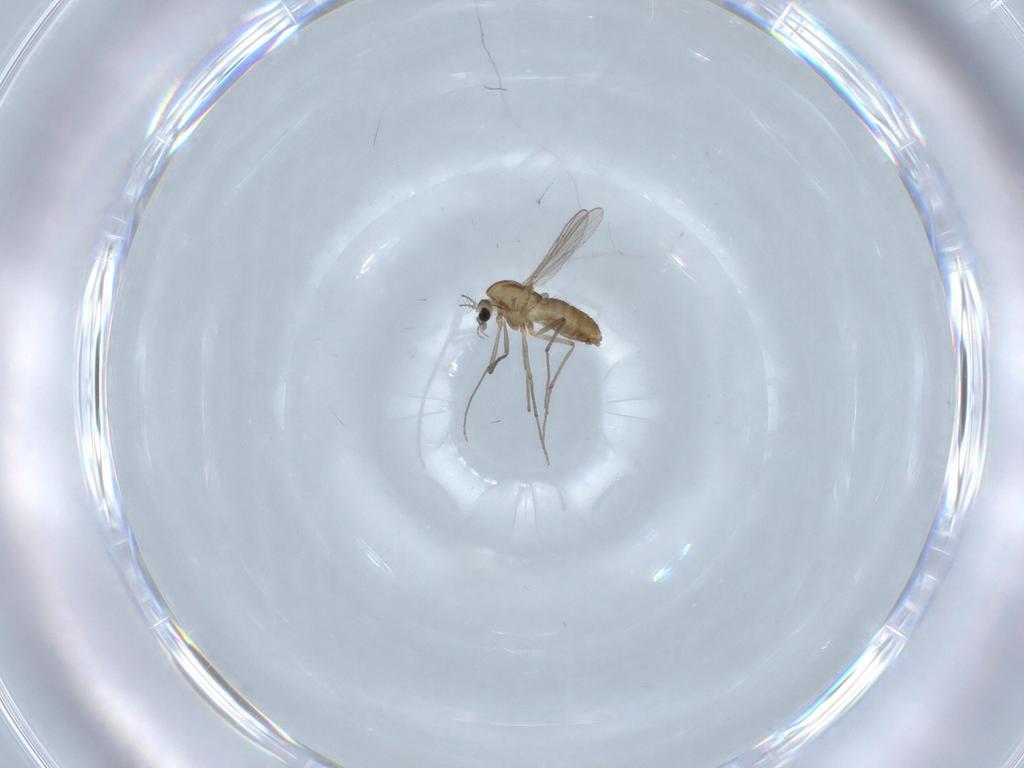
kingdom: Animalia
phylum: Arthropoda
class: Insecta
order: Diptera
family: Chironomidae
